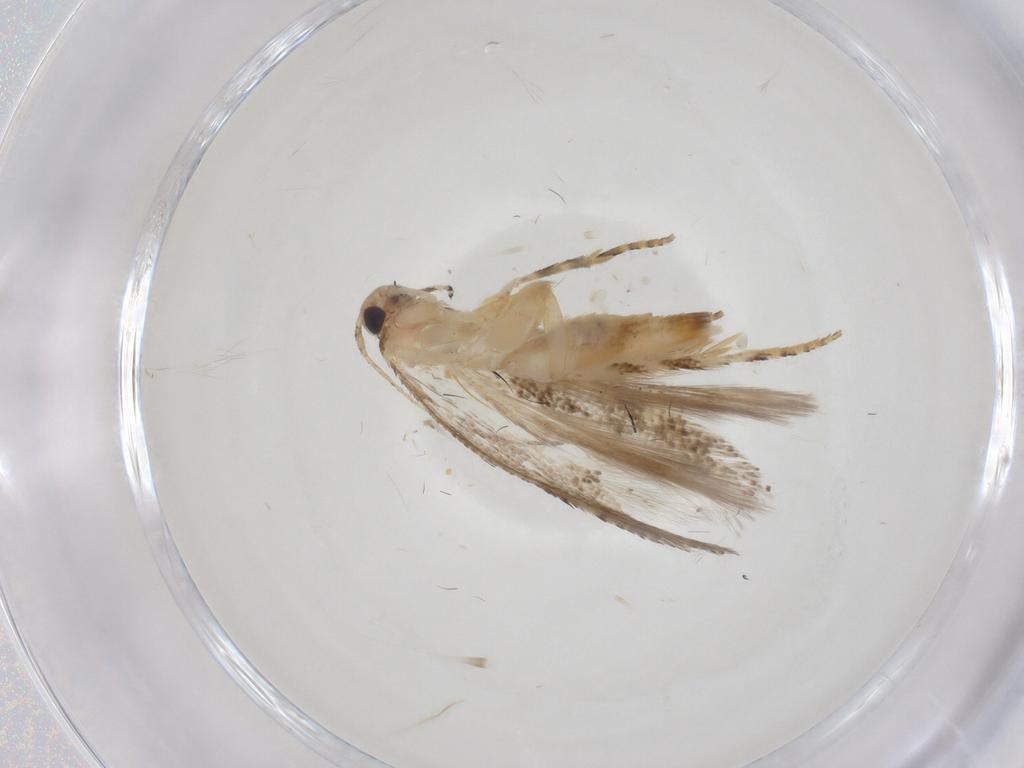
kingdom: Animalia
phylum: Arthropoda
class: Insecta
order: Lepidoptera
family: Gelechiidae
